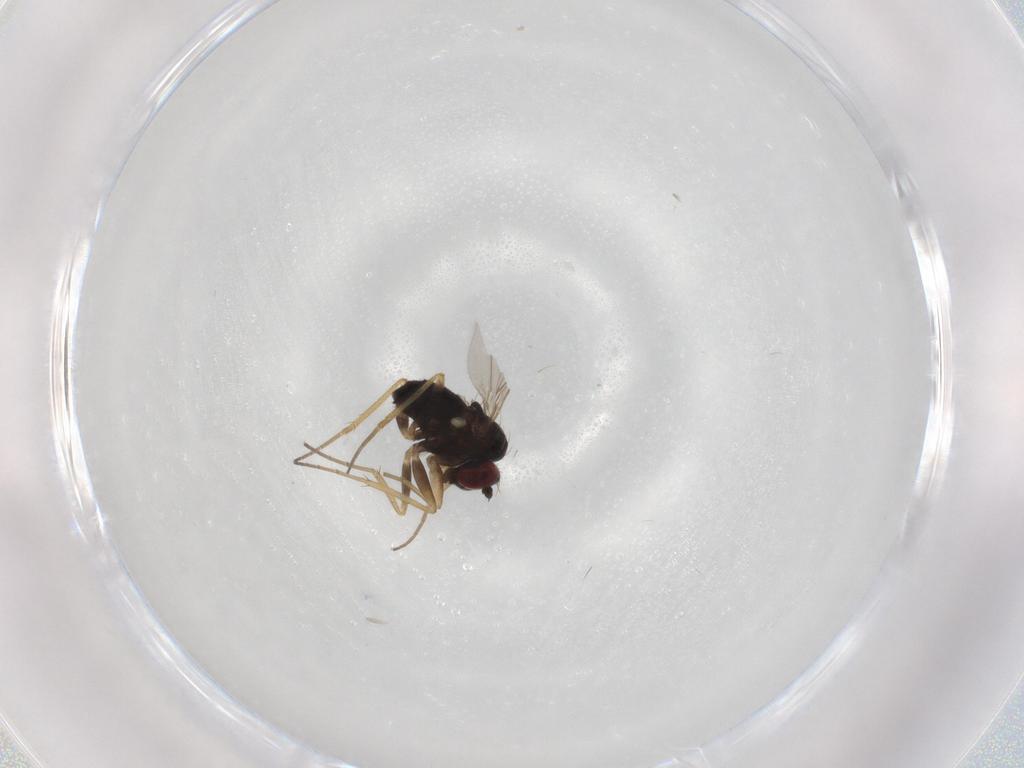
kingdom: Animalia
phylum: Arthropoda
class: Insecta
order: Diptera
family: Dolichopodidae
